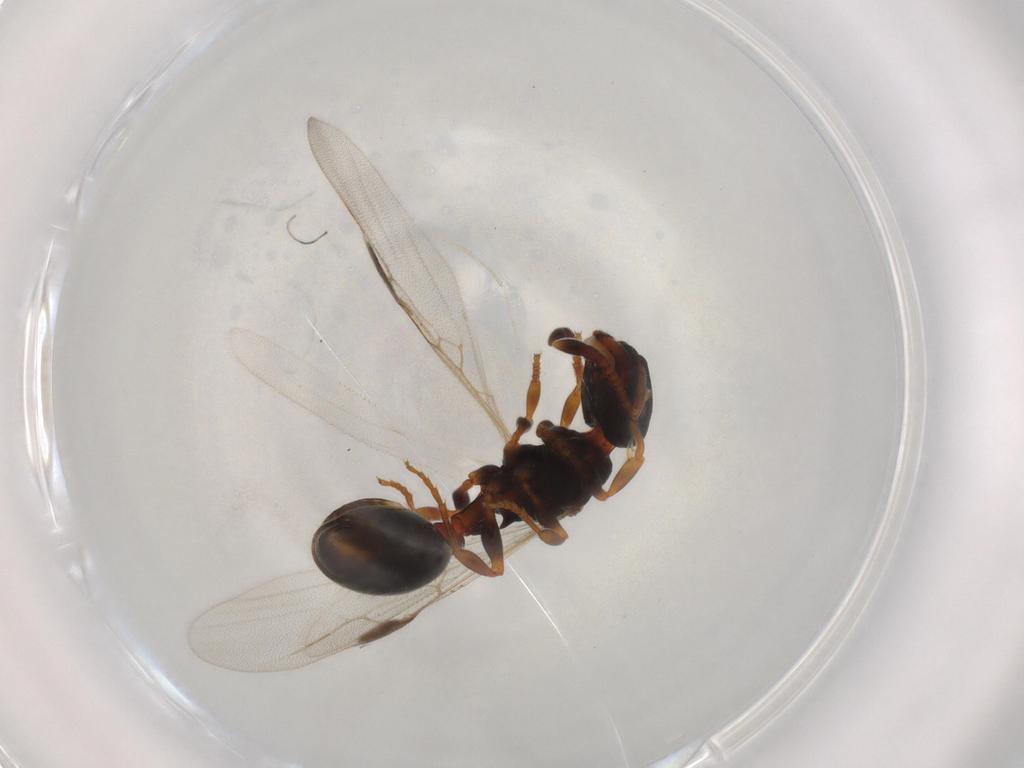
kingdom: Animalia
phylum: Arthropoda
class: Insecta
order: Hymenoptera
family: Formicidae
